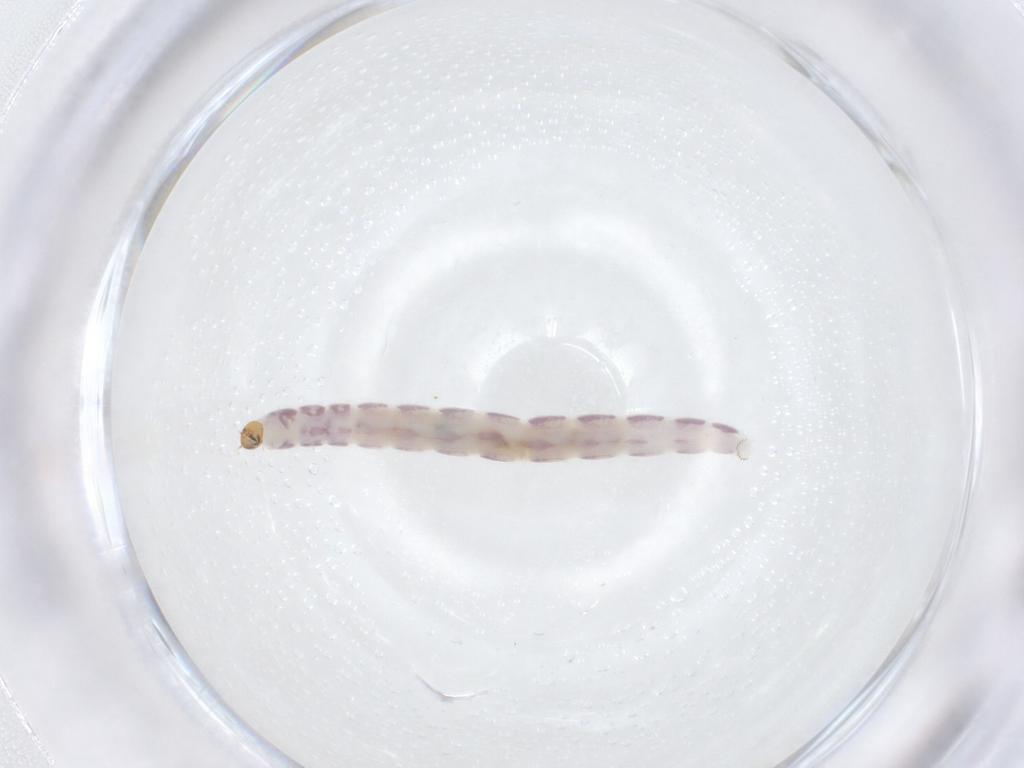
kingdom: Animalia
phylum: Arthropoda
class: Insecta
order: Diptera
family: Chironomidae
